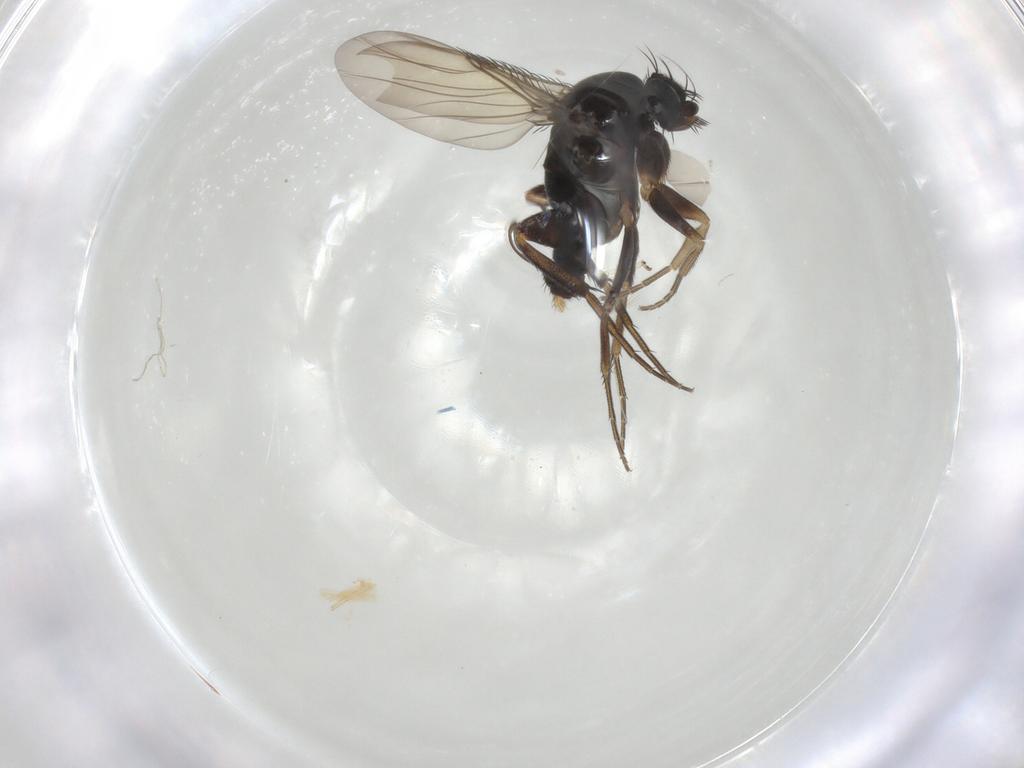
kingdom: Animalia
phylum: Arthropoda
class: Insecta
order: Diptera
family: Phoridae
